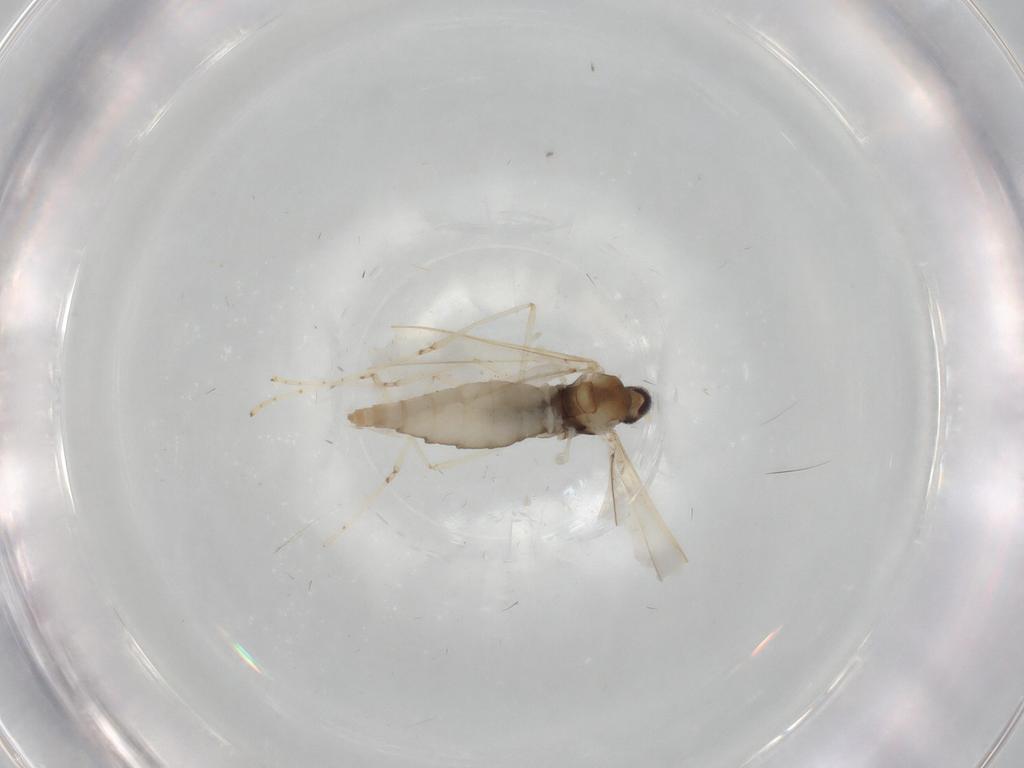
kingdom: Animalia
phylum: Arthropoda
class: Insecta
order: Diptera
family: Cecidomyiidae
